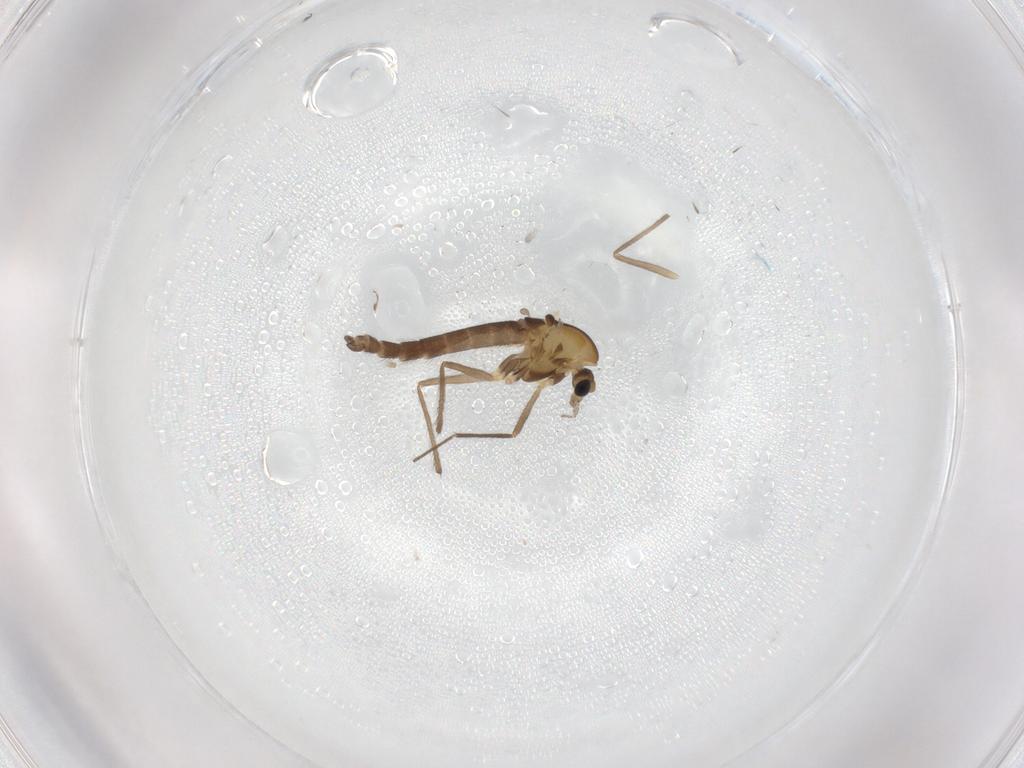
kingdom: Animalia
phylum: Arthropoda
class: Insecta
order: Diptera
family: Chironomidae
